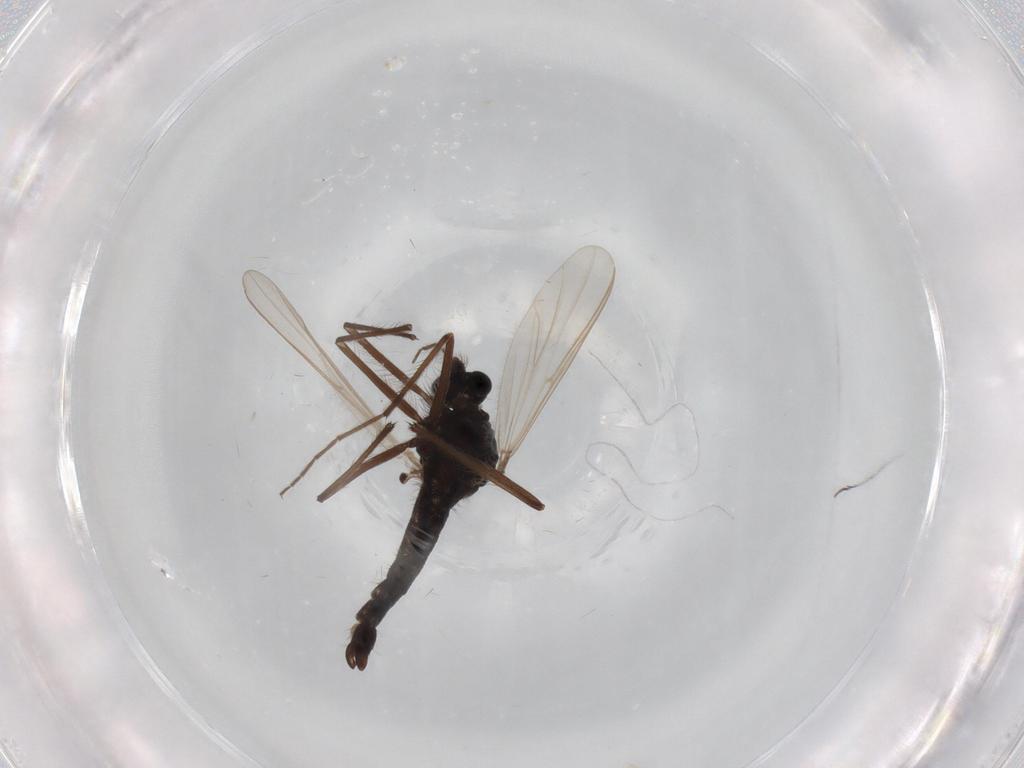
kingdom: Animalia
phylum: Arthropoda
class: Insecta
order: Diptera
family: Sphaeroceridae
